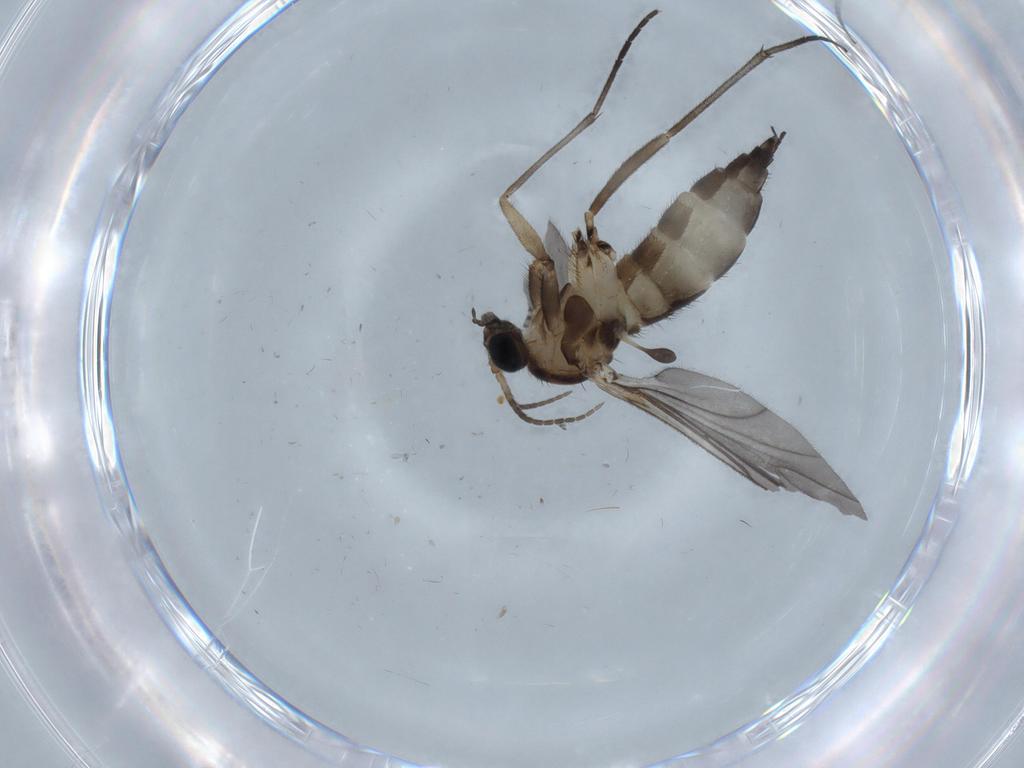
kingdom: Animalia
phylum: Arthropoda
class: Insecta
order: Diptera
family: Sciaridae
